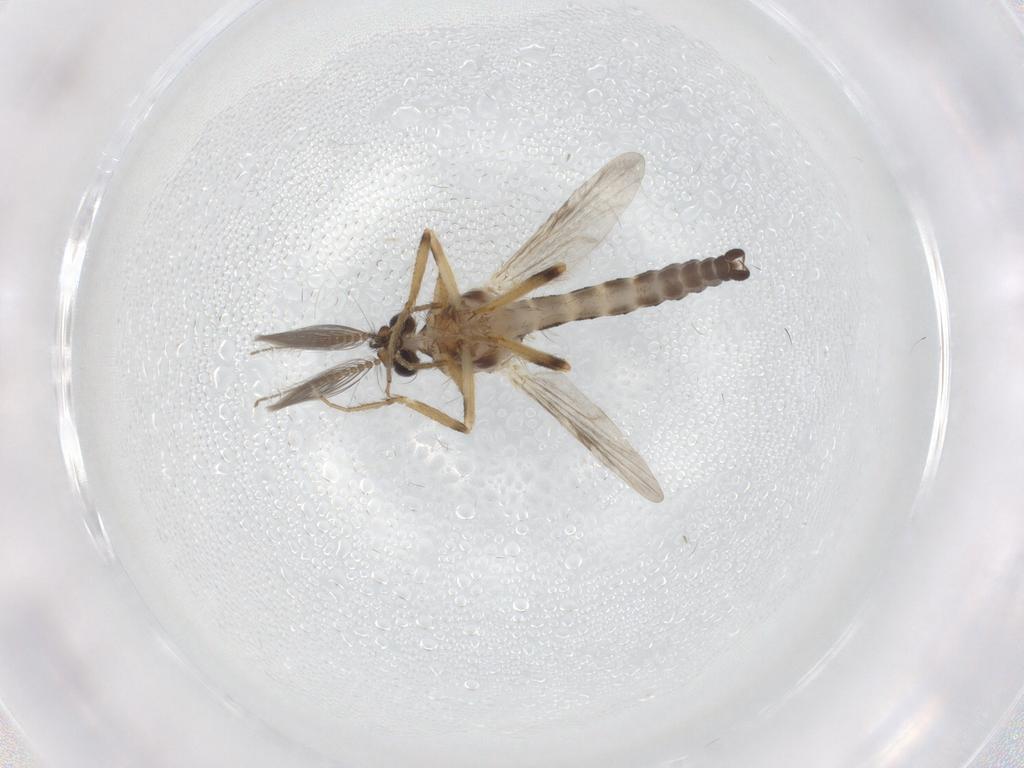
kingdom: Animalia
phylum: Arthropoda
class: Insecta
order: Diptera
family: Ceratopogonidae
